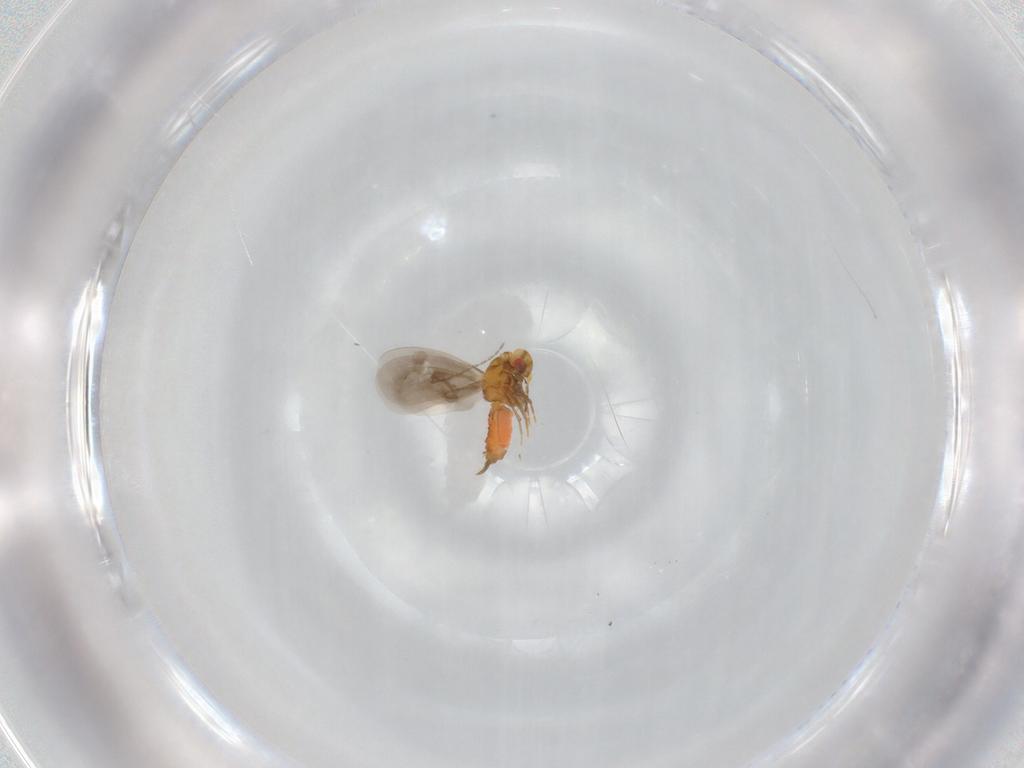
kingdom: Animalia
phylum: Arthropoda
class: Insecta
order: Hemiptera
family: Aleyrodidae
